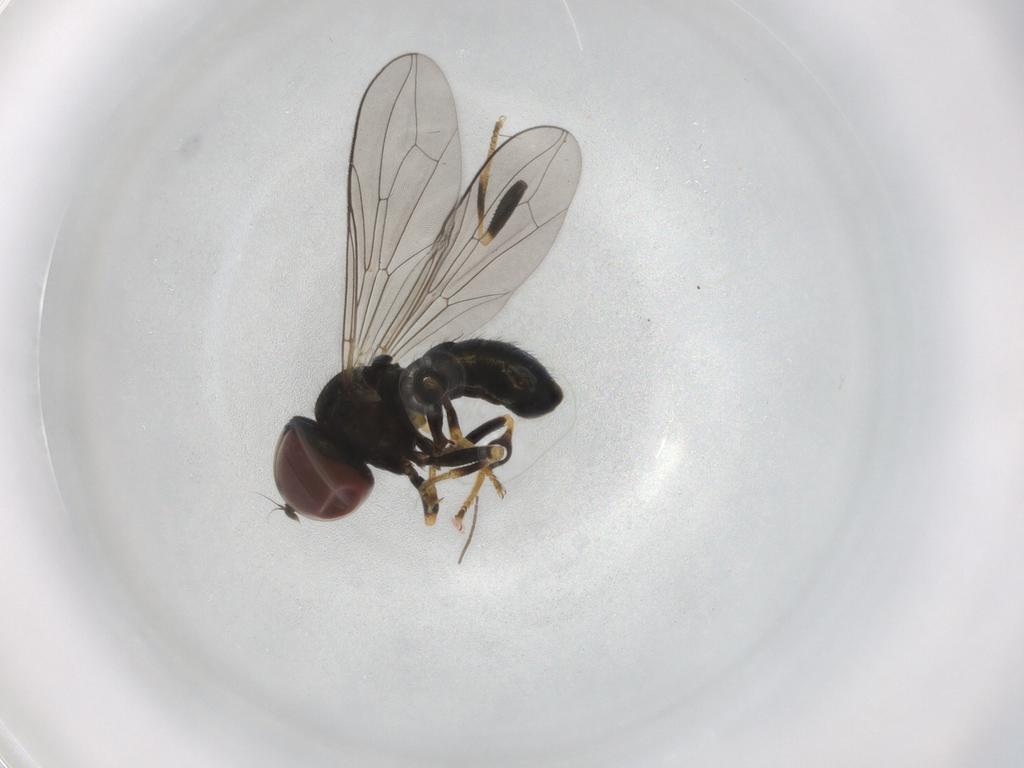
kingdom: Animalia
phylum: Arthropoda
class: Insecta
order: Diptera
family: Pipunculidae
